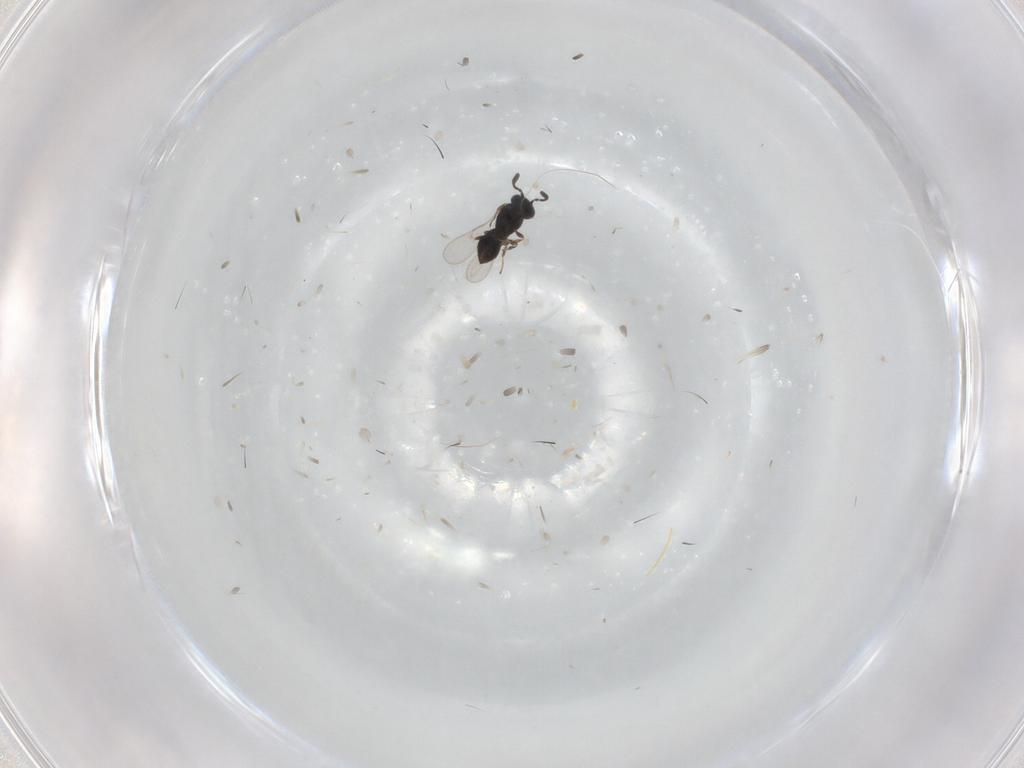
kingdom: Animalia
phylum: Arthropoda
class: Insecta
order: Hymenoptera
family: Scelionidae
